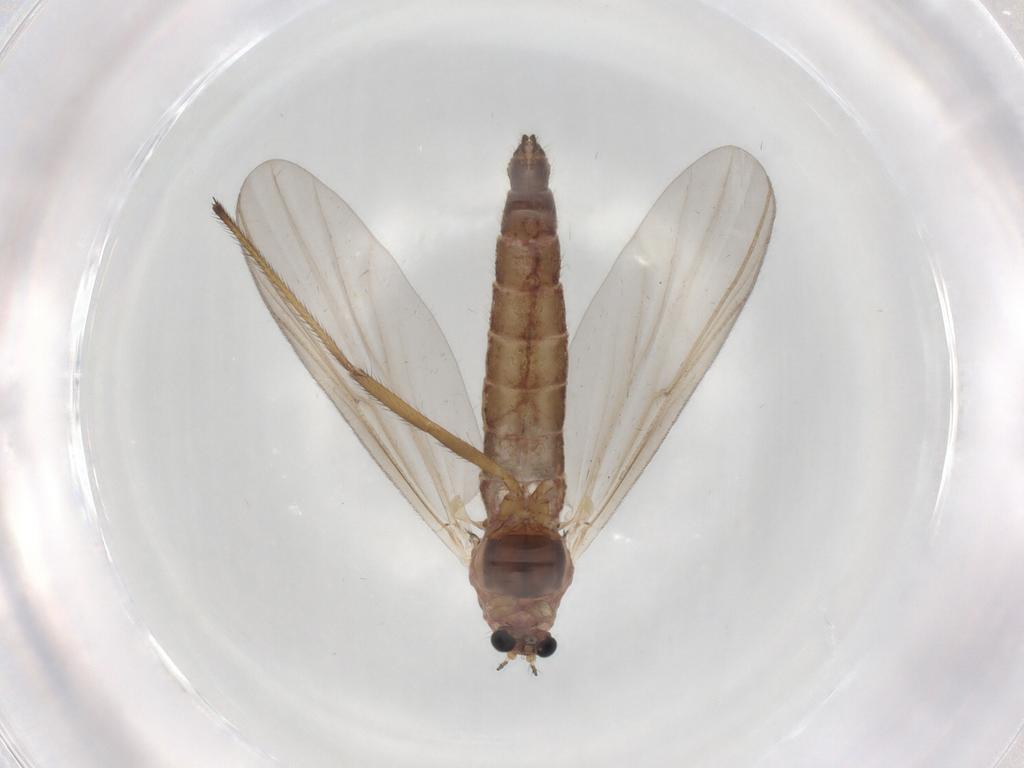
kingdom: Animalia
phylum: Arthropoda
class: Insecta
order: Diptera
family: Chironomidae
